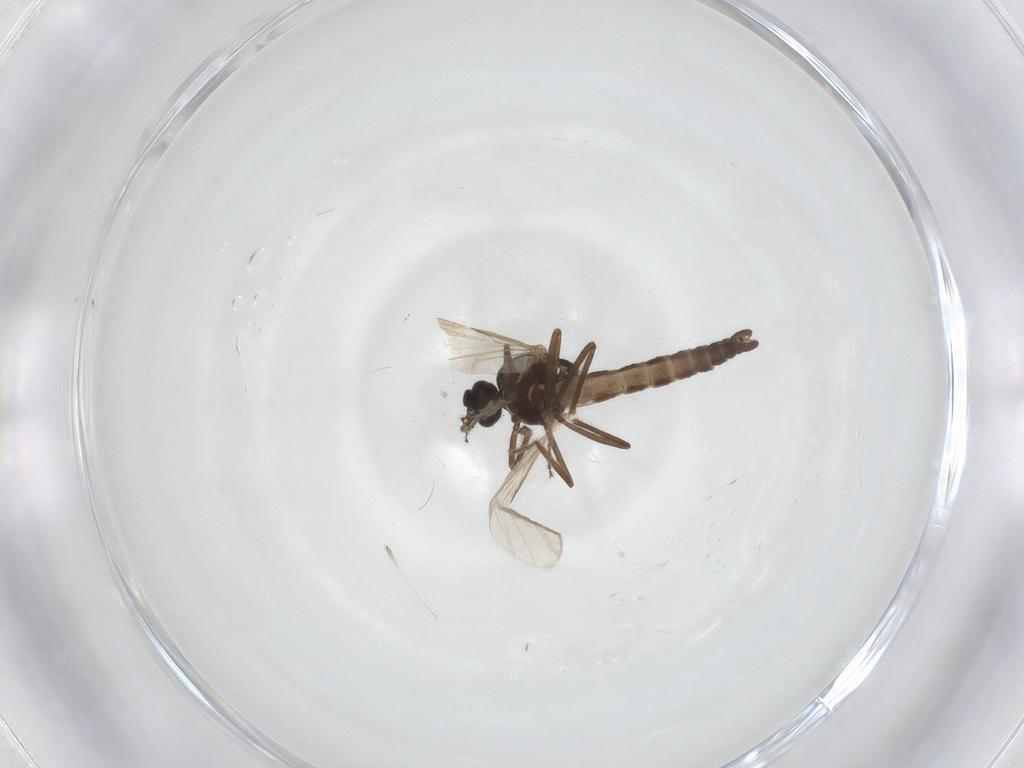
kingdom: Animalia
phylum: Arthropoda
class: Insecta
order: Diptera
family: Ceratopogonidae
